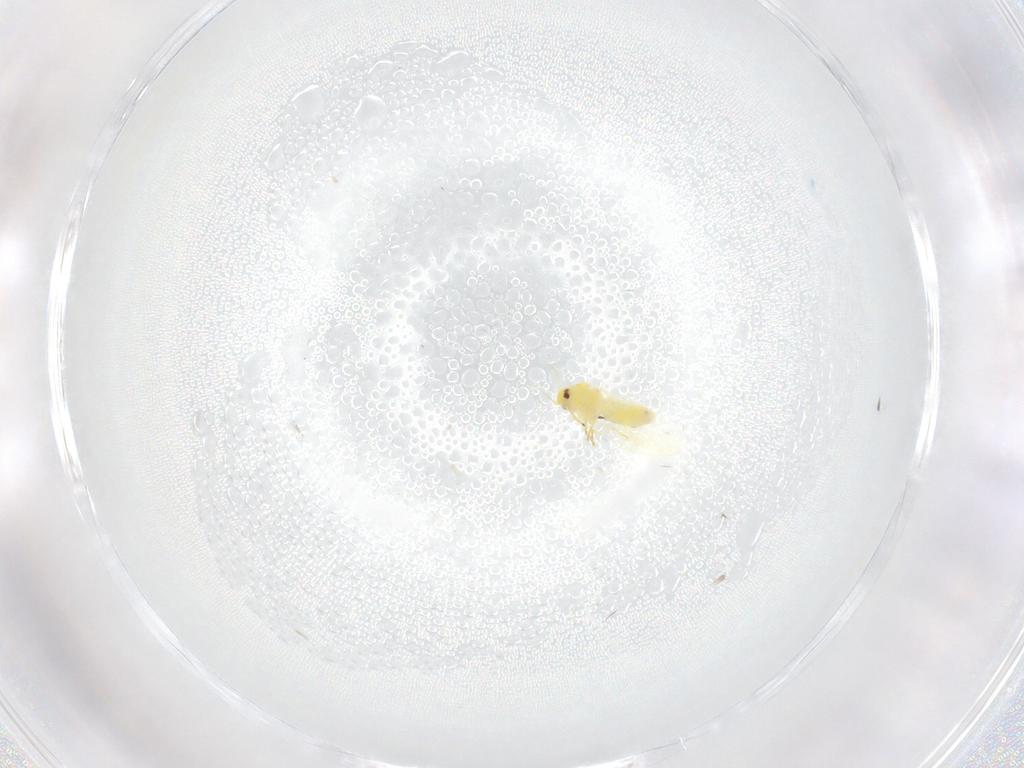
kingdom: Animalia
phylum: Arthropoda
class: Insecta
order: Hemiptera
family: Aleyrodidae
